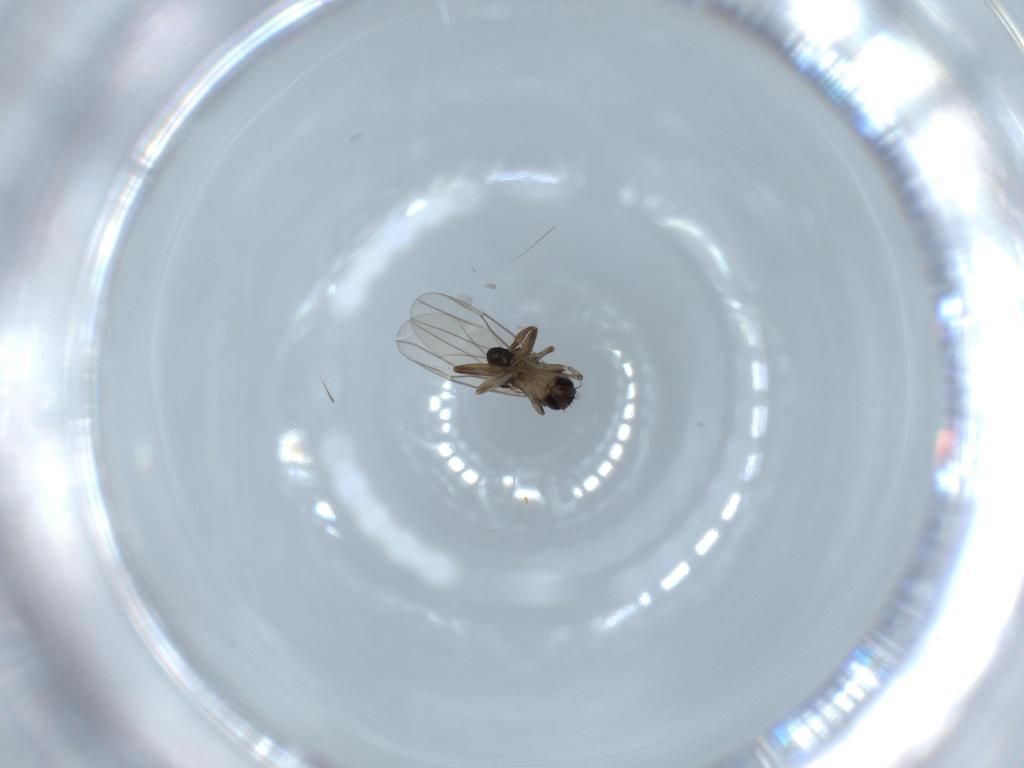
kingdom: Animalia
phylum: Arthropoda
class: Insecta
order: Diptera
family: Phoridae
